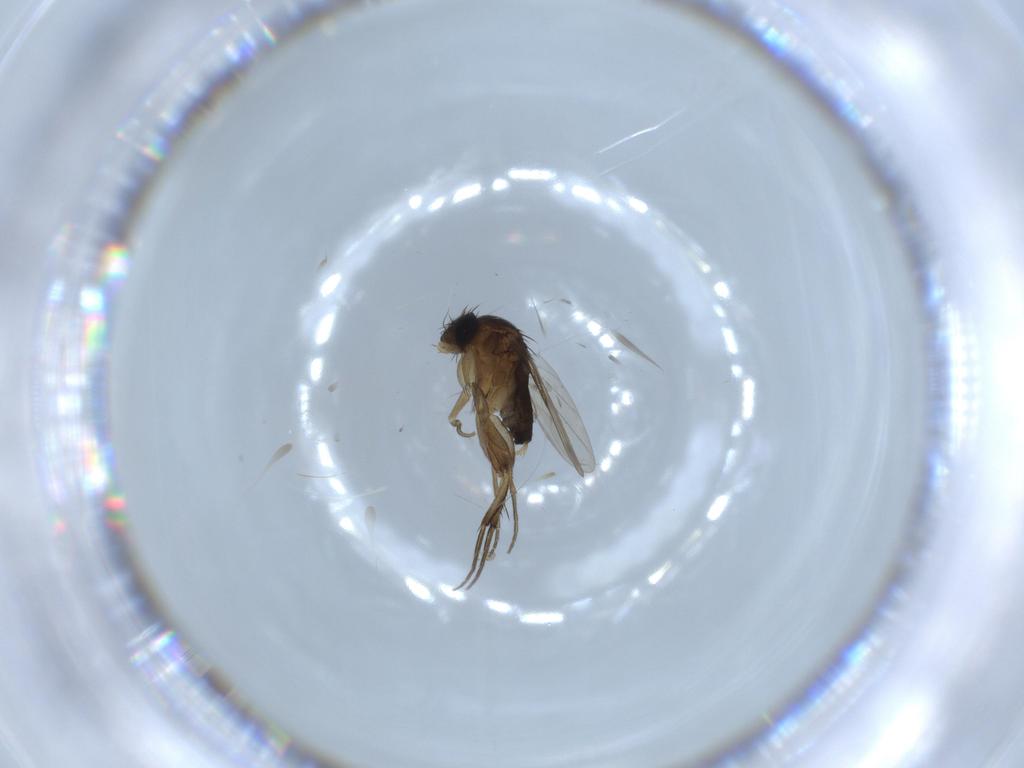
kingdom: Animalia
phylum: Arthropoda
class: Insecta
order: Diptera
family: Phoridae
